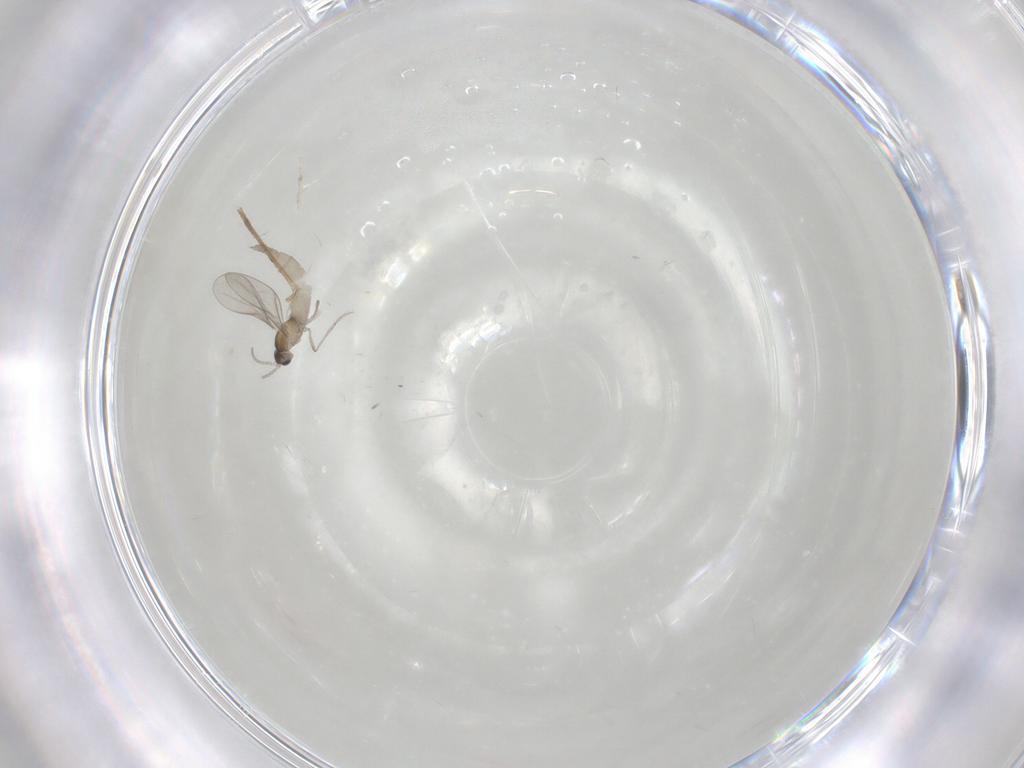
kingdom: Animalia
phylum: Arthropoda
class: Insecta
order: Diptera
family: Cecidomyiidae
